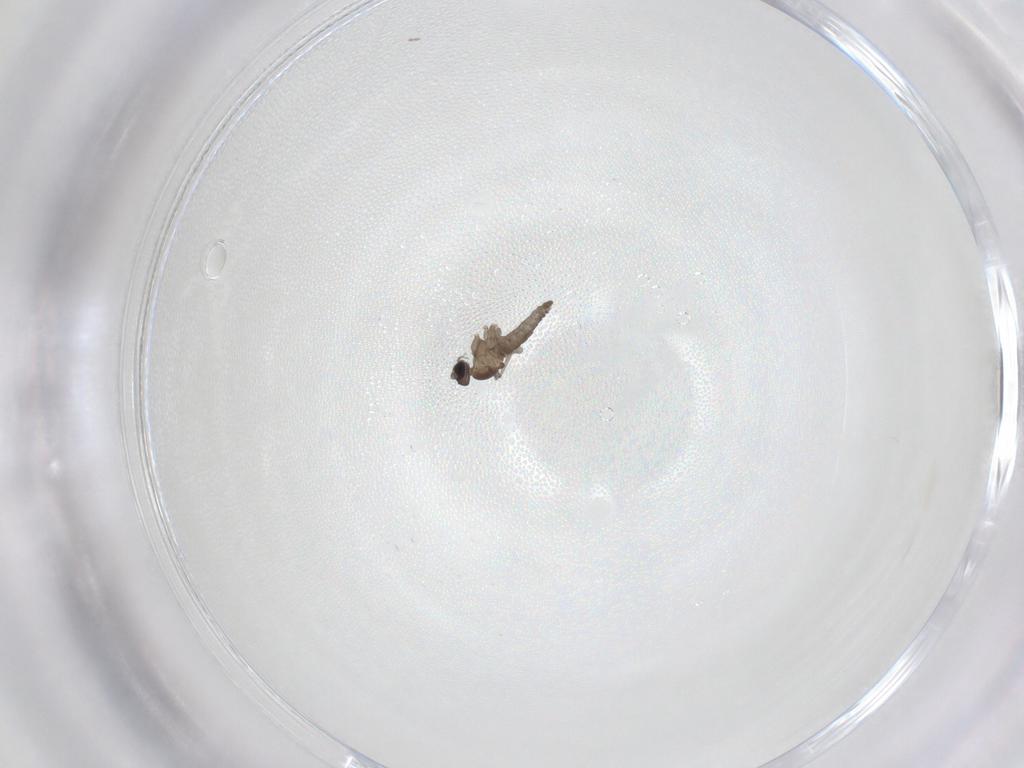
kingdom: Animalia
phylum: Arthropoda
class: Insecta
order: Diptera
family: Cecidomyiidae
